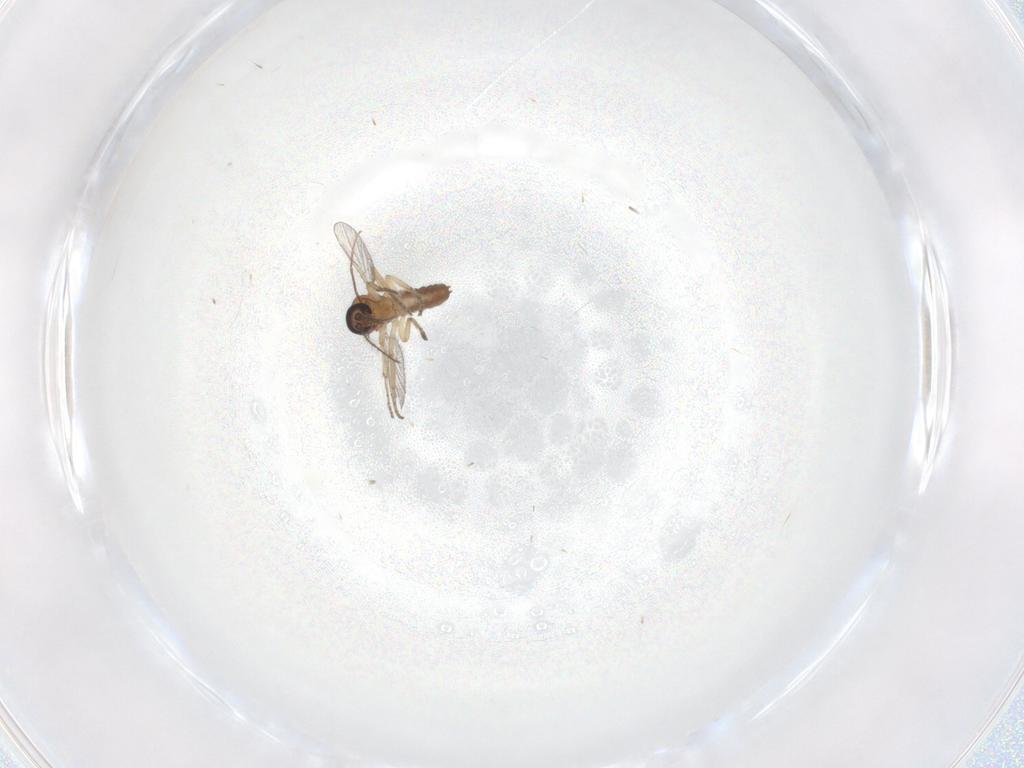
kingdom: Animalia
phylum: Arthropoda
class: Insecta
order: Diptera
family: Ceratopogonidae
